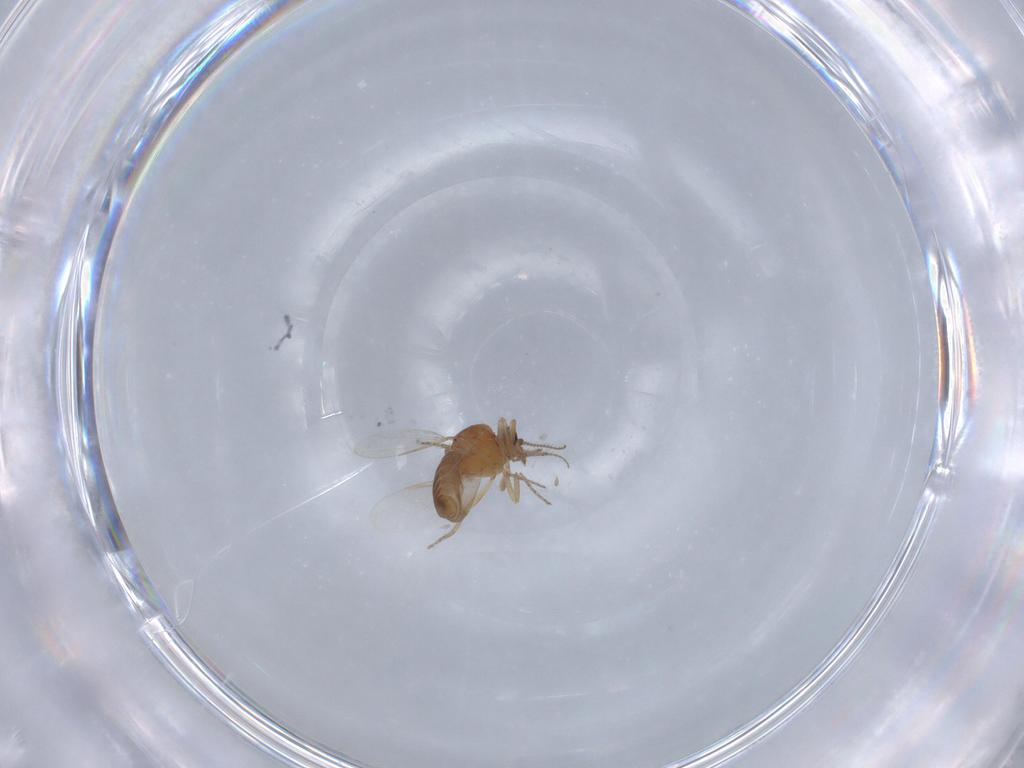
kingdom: Animalia
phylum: Arthropoda
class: Insecta
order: Diptera
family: Ceratopogonidae
